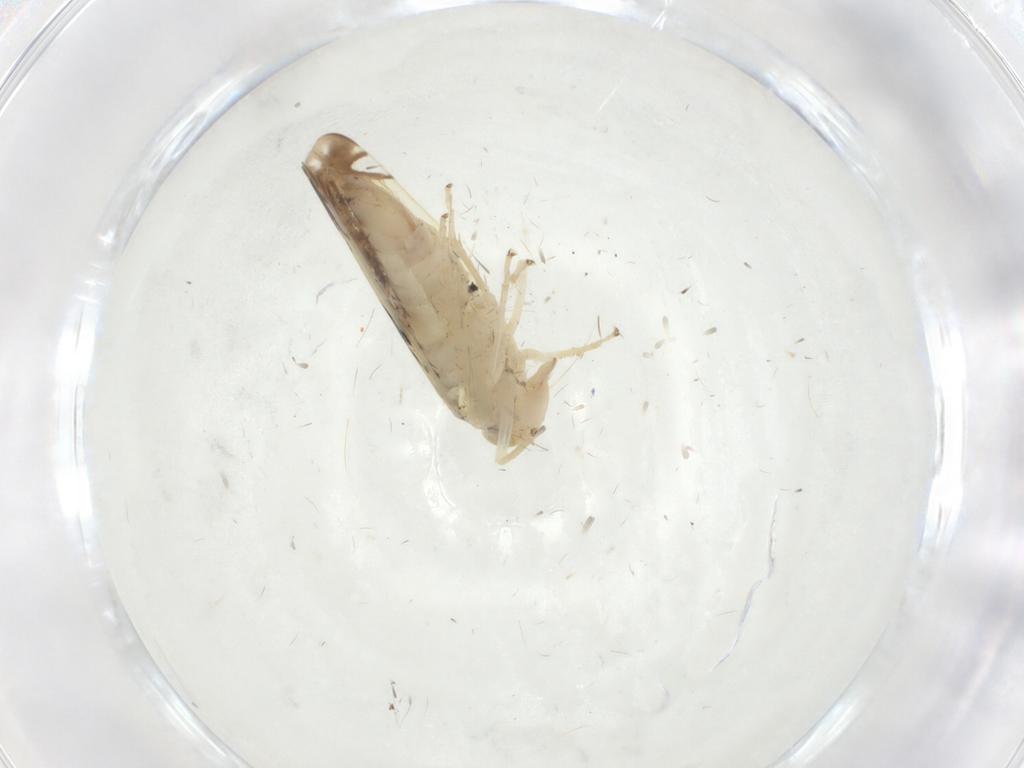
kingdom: Animalia
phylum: Arthropoda
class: Insecta
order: Hemiptera
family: Cicadellidae
